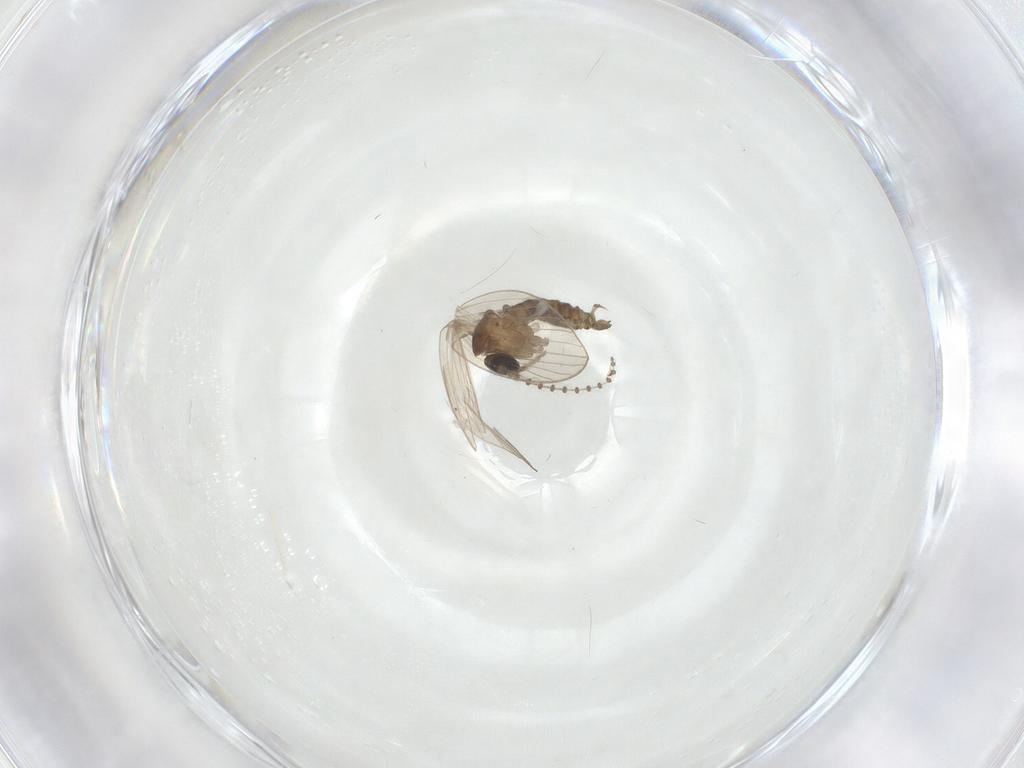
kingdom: Animalia
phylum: Arthropoda
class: Insecta
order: Diptera
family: Psychodidae
